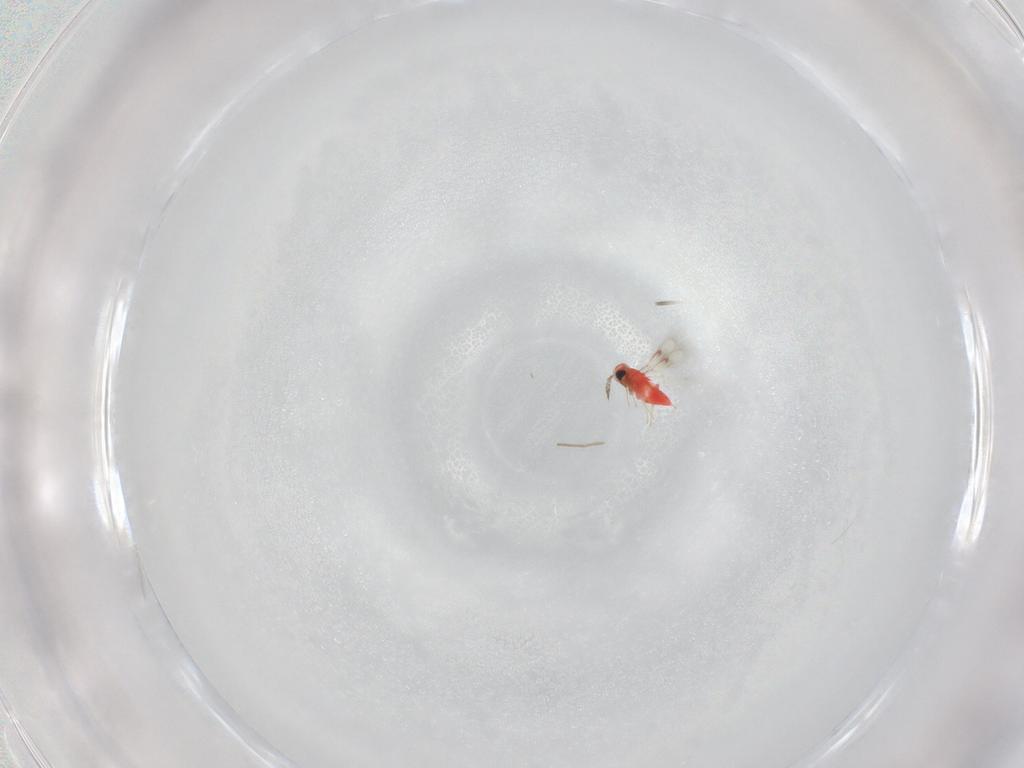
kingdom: Animalia
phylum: Arthropoda
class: Insecta
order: Hymenoptera
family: Trichogrammatidae
